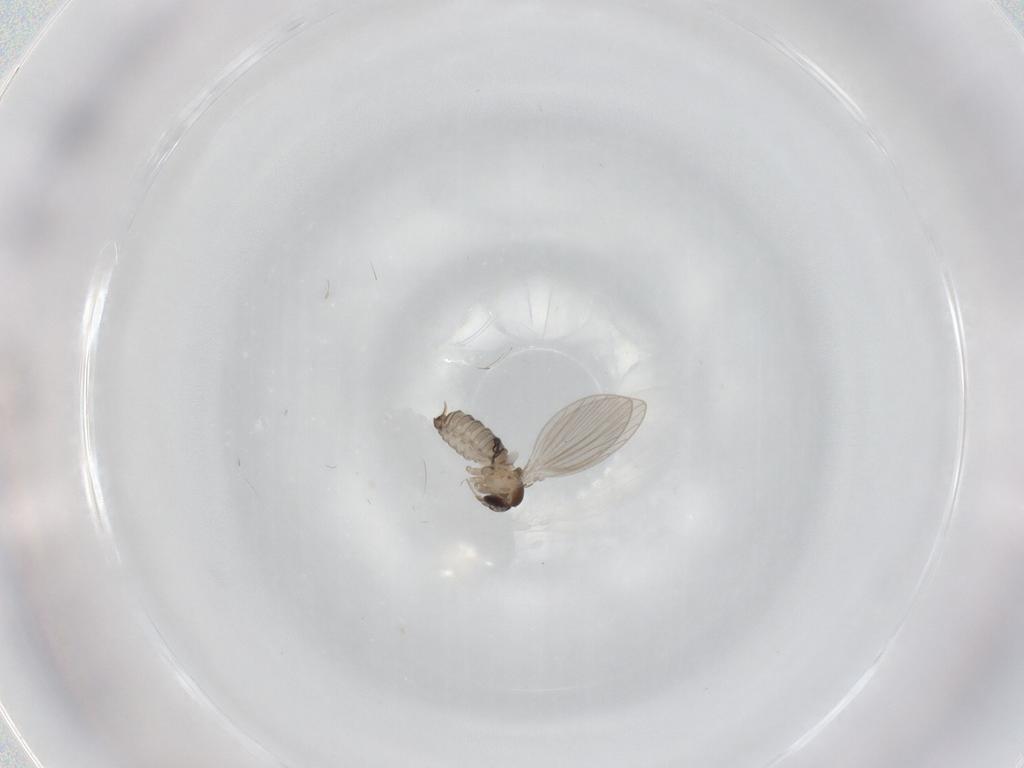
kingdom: Animalia
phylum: Arthropoda
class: Insecta
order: Diptera
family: Psychodidae
